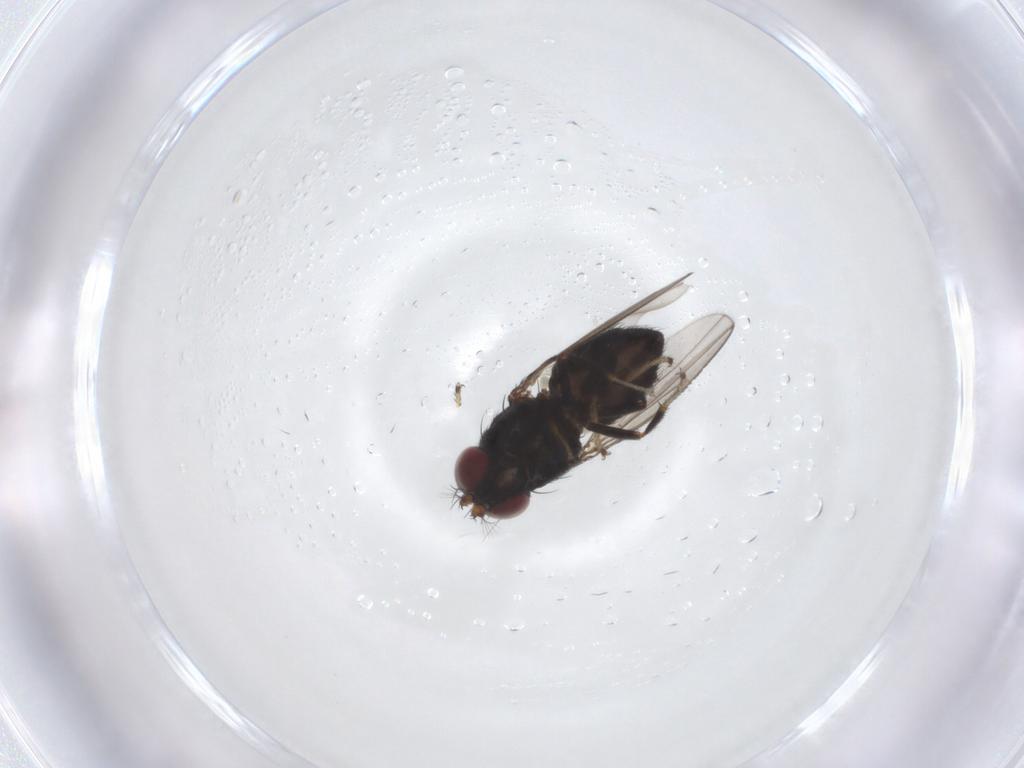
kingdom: Animalia
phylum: Arthropoda
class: Insecta
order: Diptera
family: Ephydridae
